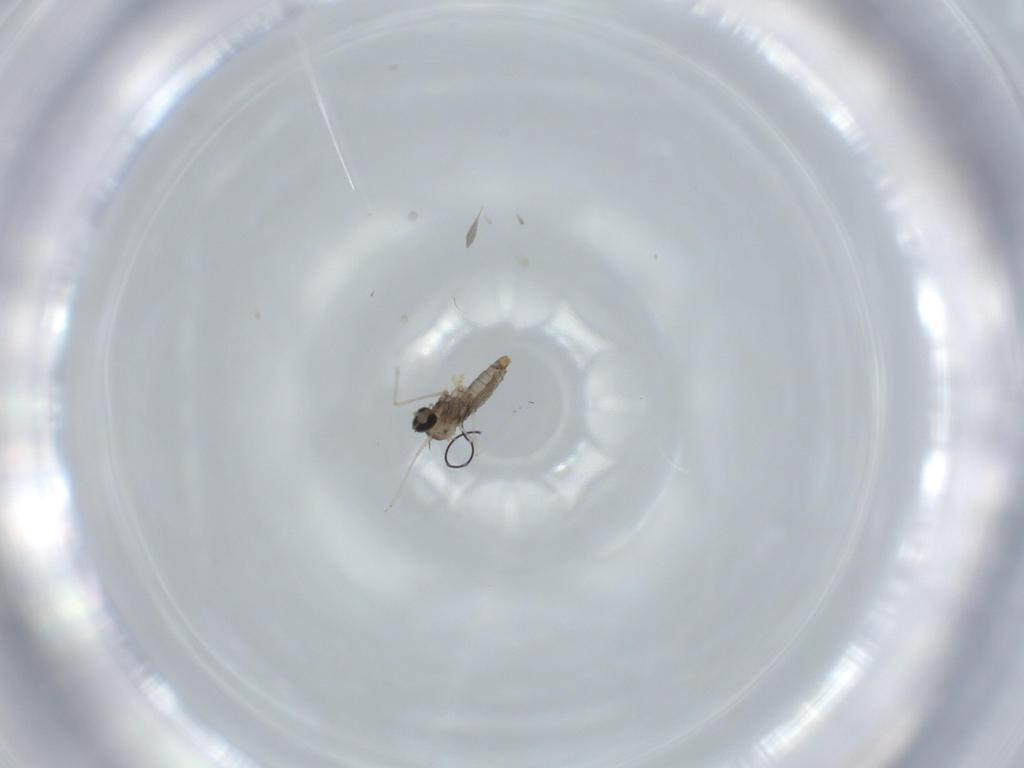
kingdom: Animalia
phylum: Arthropoda
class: Insecta
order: Diptera
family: Cecidomyiidae
